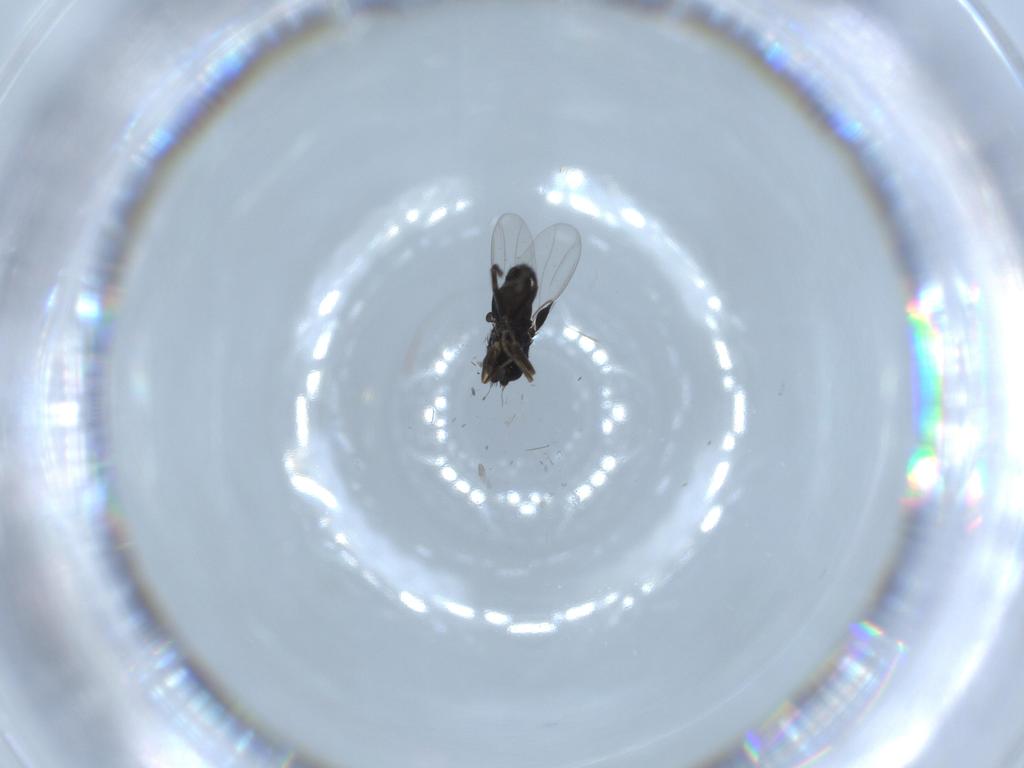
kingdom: Animalia
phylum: Arthropoda
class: Insecta
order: Diptera
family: Phoridae
